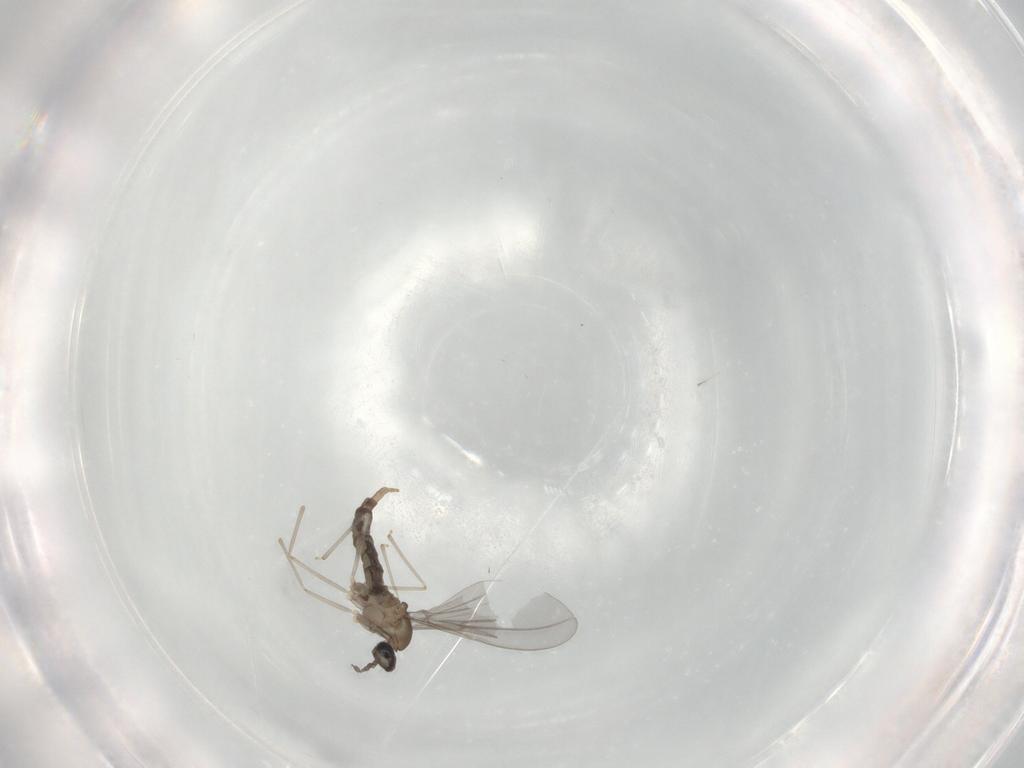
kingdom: Animalia
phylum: Arthropoda
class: Insecta
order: Diptera
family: Cecidomyiidae
